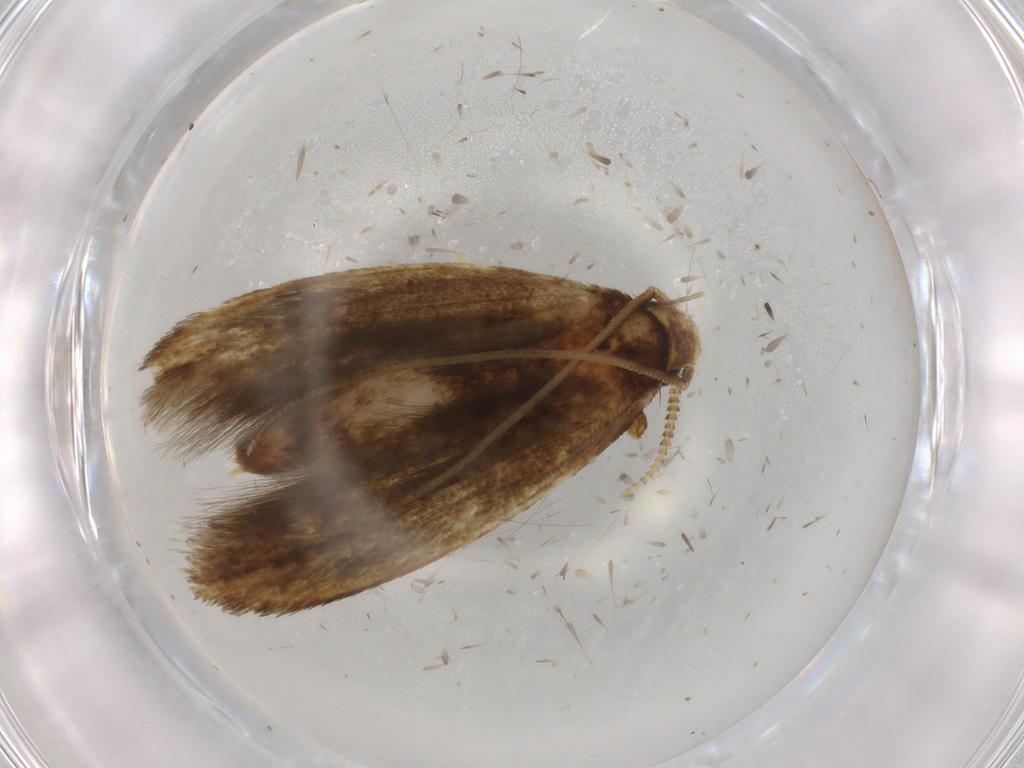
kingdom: Animalia
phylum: Arthropoda
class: Insecta
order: Lepidoptera
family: Tineidae
